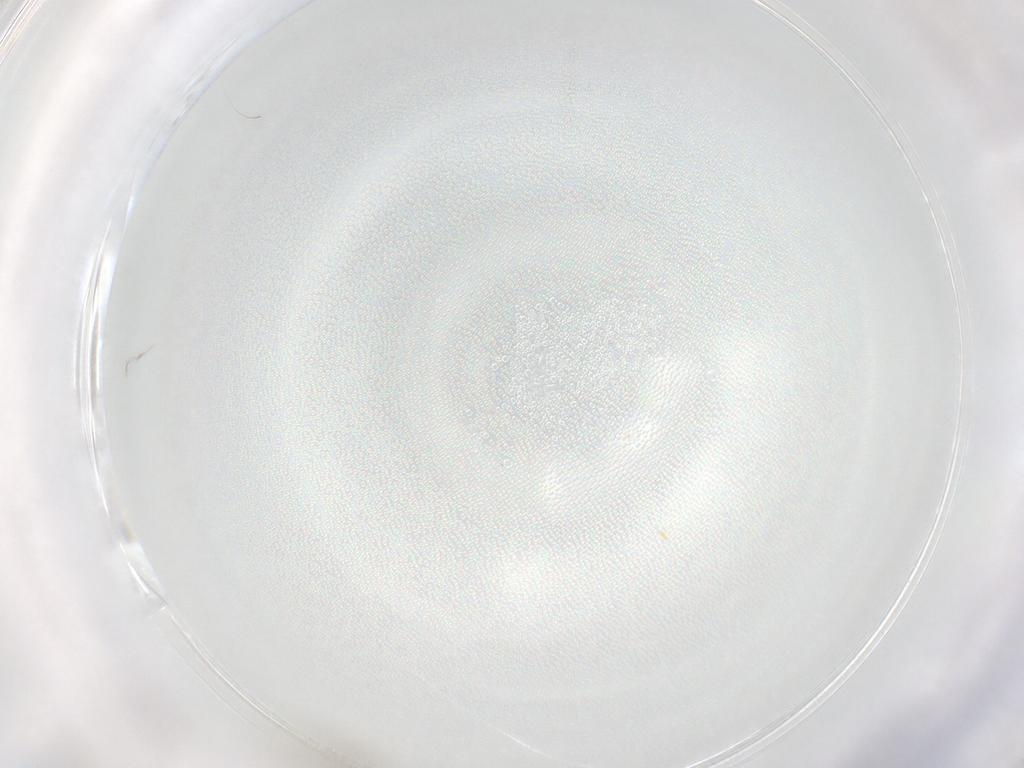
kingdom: Animalia
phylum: Arthropoda
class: Insecta
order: Diptera
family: Cecidomyiidae
